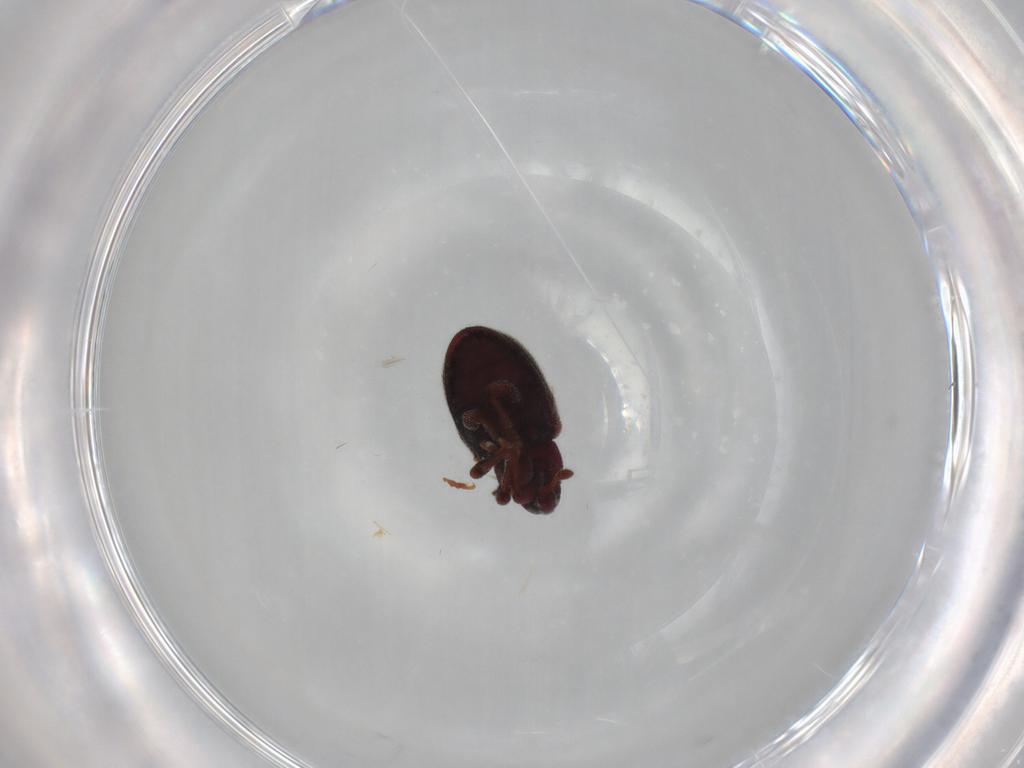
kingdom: Animalia
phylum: Arthropoda
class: Insecta
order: Coleoptera
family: Curculionidae
